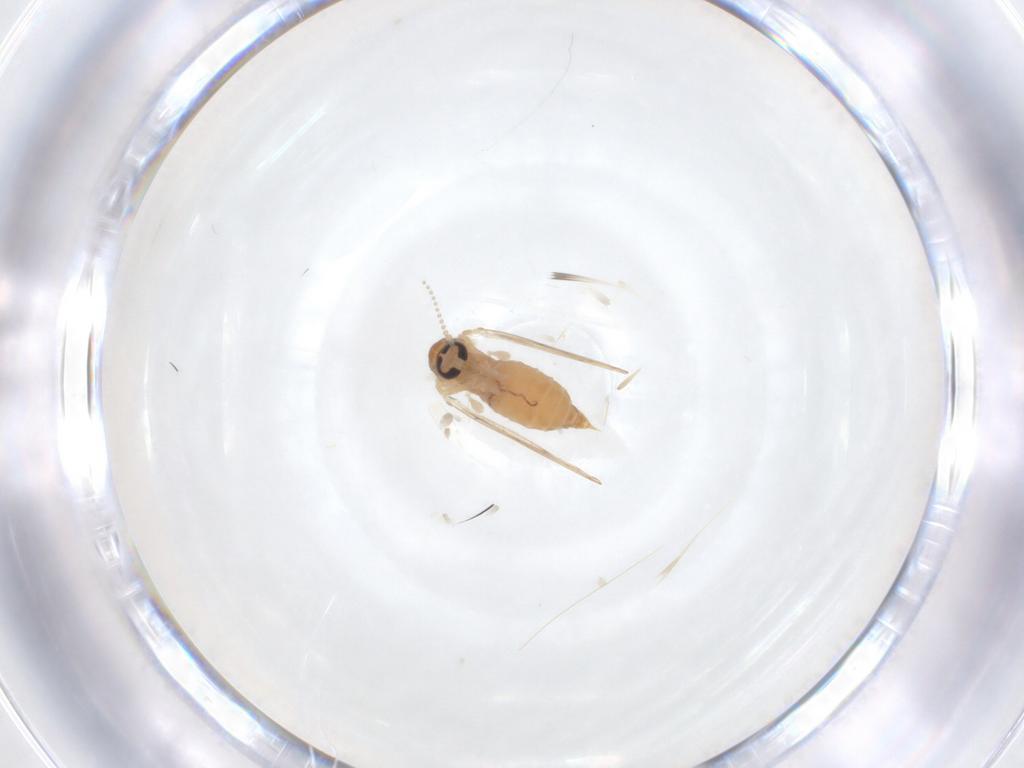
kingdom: Animalia
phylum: Arthropoda
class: Insecta
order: Diptera
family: Psychodidae
